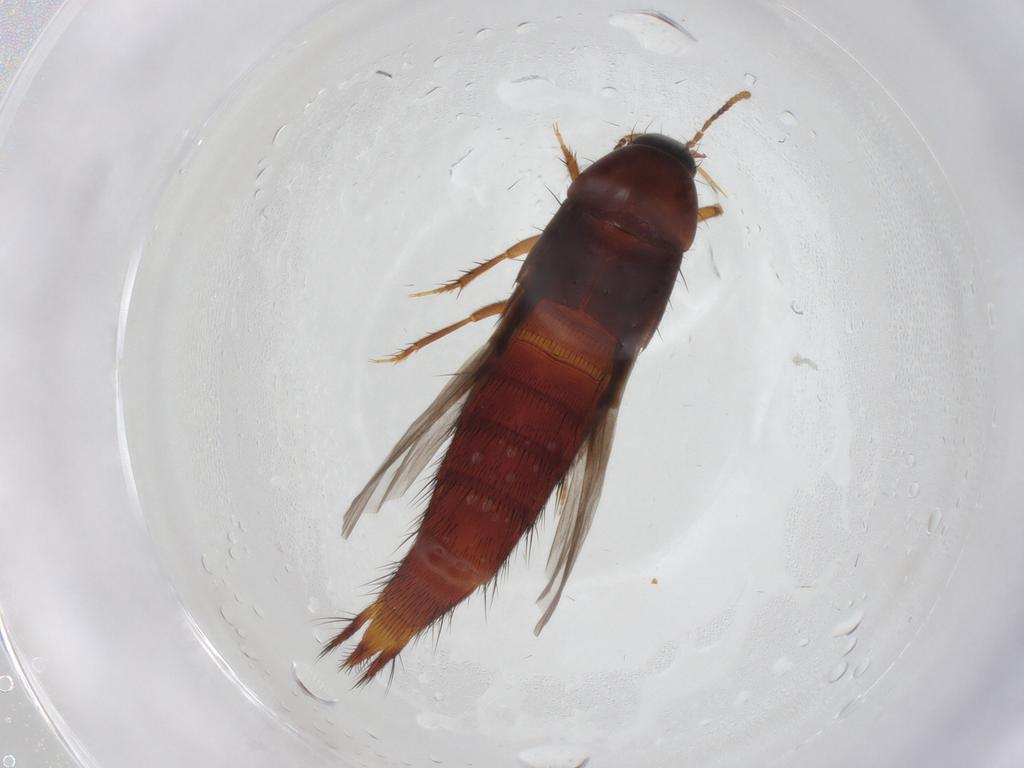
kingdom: Animalia
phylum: Arthropoda
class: Insecta
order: Coleoptera
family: Staphylinidae
